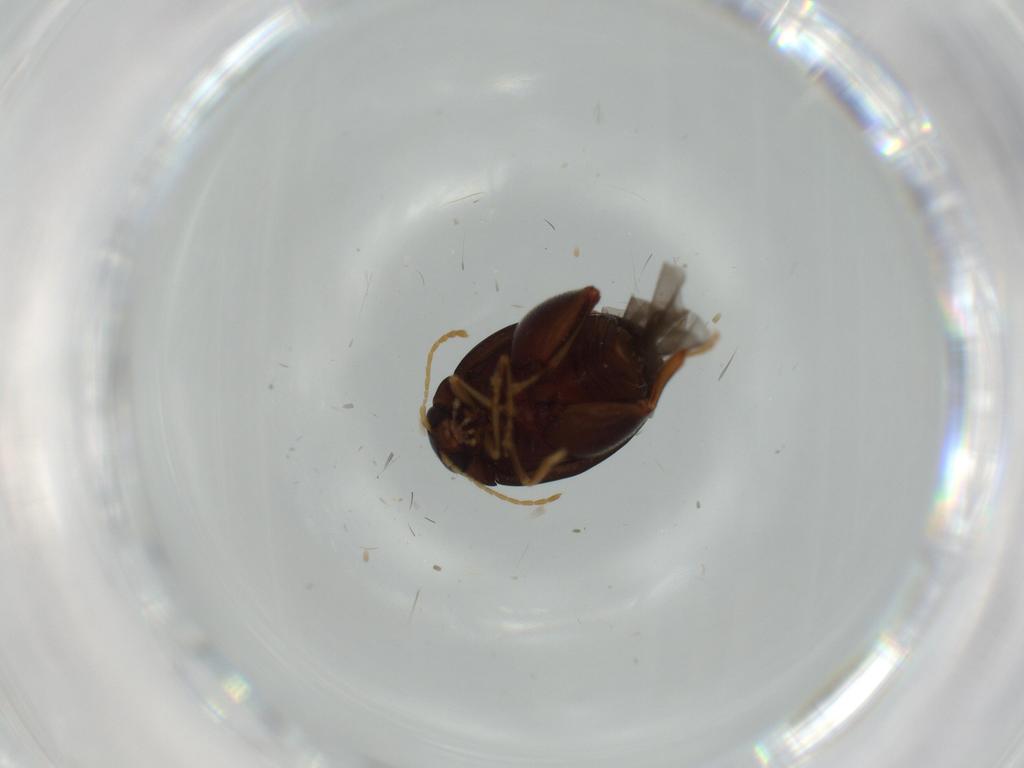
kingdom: Animalia
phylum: Arthropoda
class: Insecta
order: Coleoptera
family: Chrysomelidae
